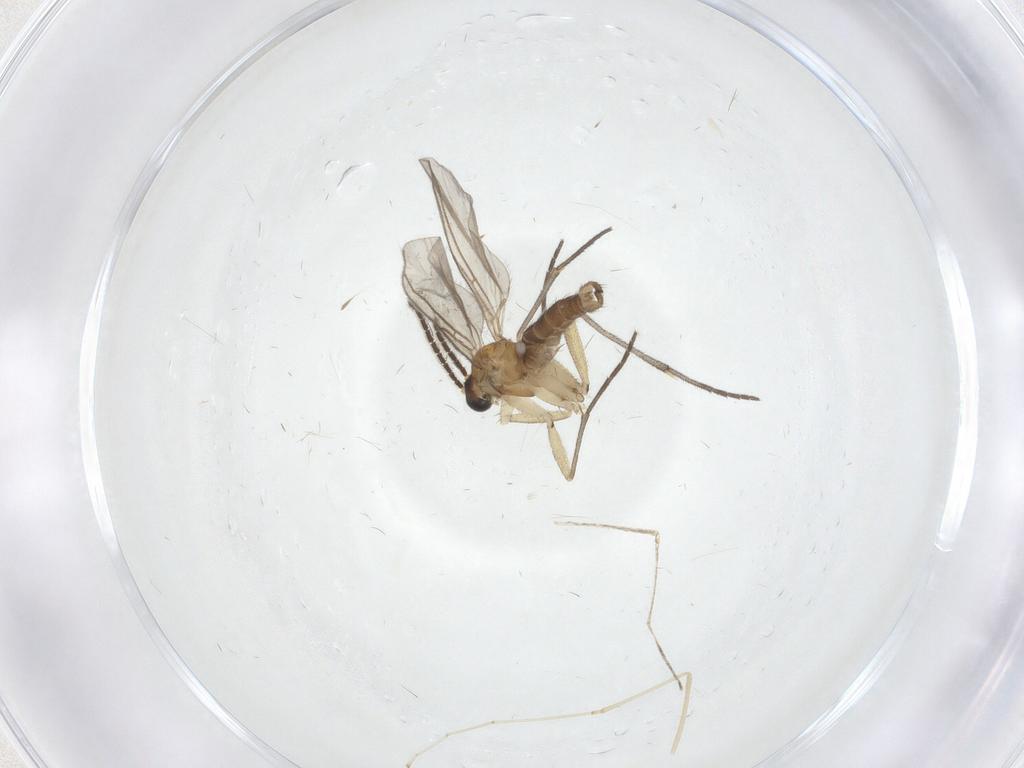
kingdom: Animalia
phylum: Arthropoda
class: Insecta
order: Diptera
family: Sciaridae
